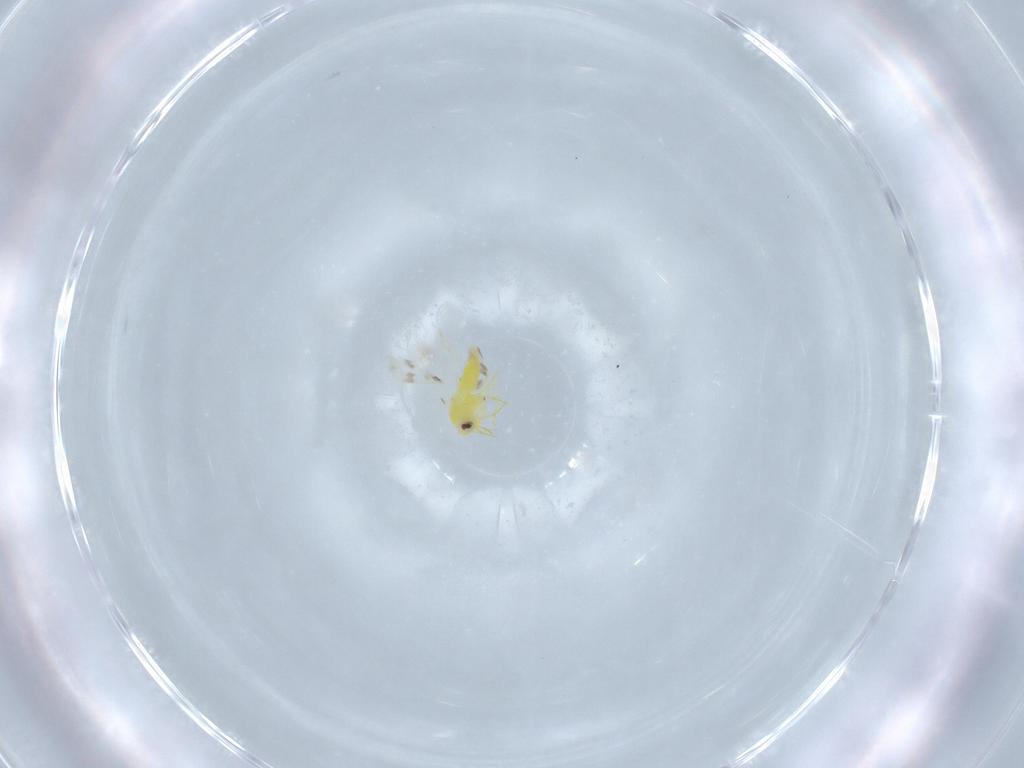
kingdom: Animalia
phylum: Arthropoda
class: Insecta
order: Hemiptera
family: Aleyrodidae
